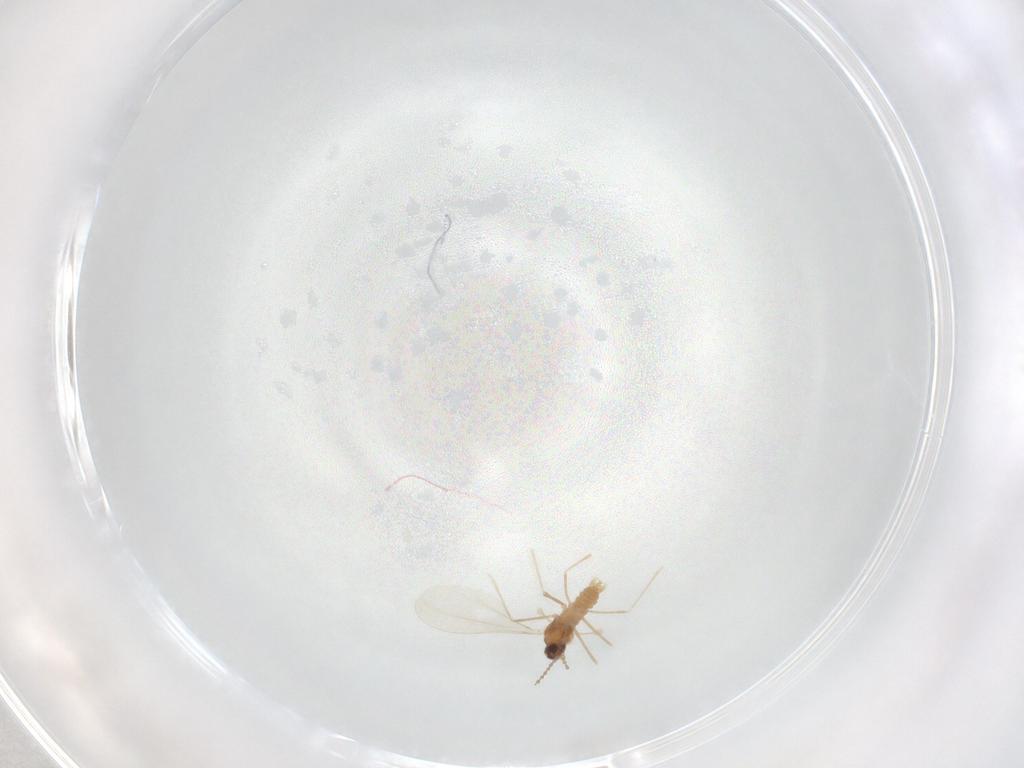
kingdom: Animalia
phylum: Arthropoda
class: Insecta
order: Diptera
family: Cecidomyiidae
